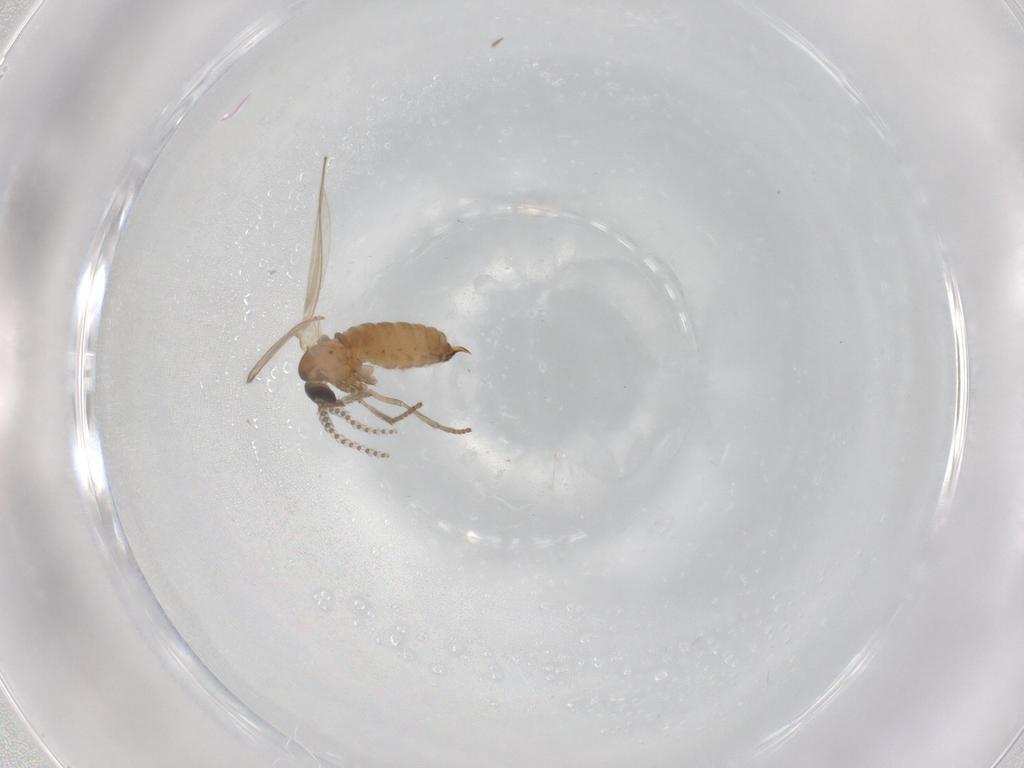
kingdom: Animalia
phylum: Arthropoda
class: Insecta
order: Diptera
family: Psychodidae
